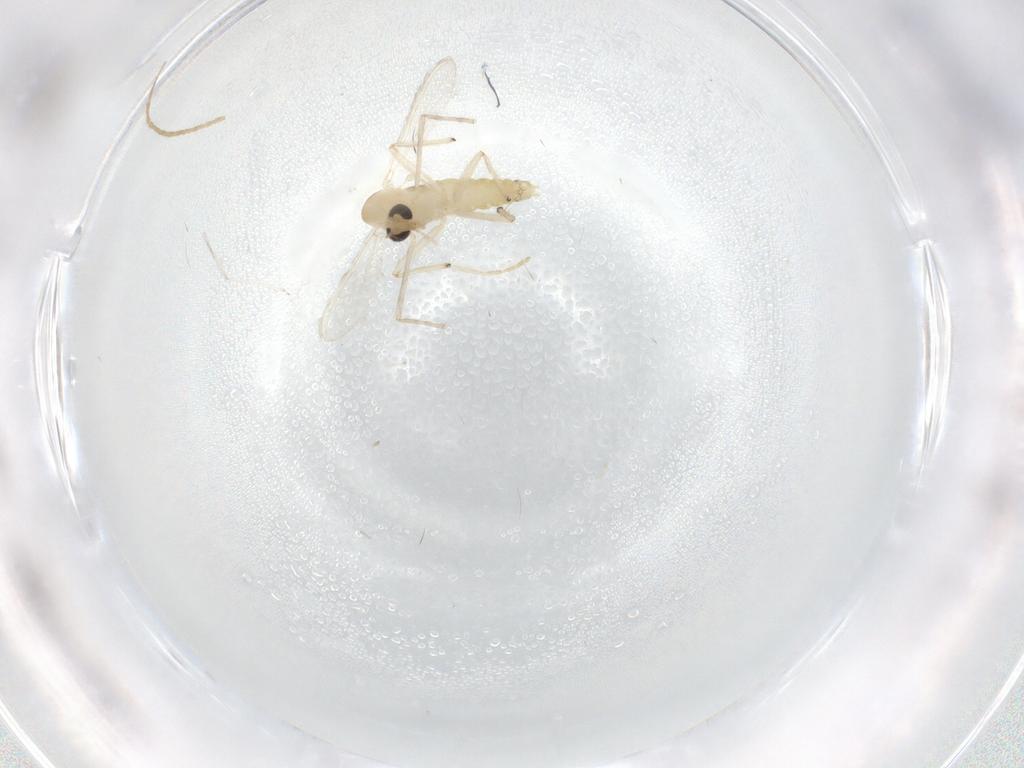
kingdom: Animalia
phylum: Arthropoda
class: Insecta
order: Diptera
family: Chironomidae
